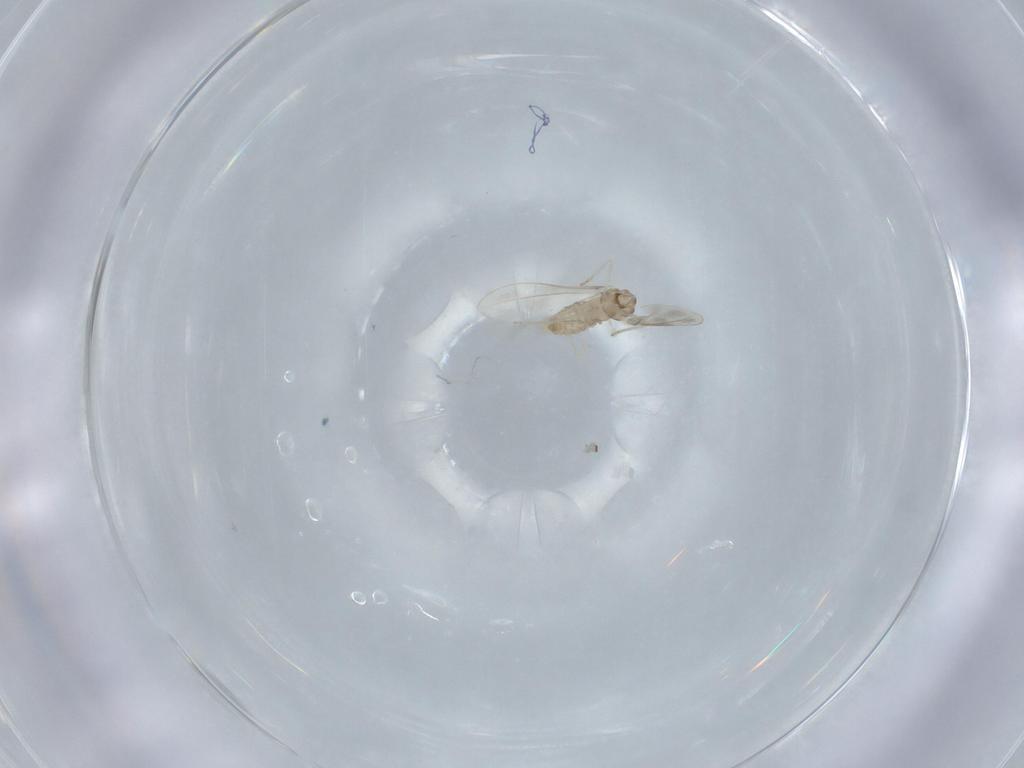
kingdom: Animalia
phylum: Arthropoda
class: Insecta
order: Diptera
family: Cecidomyiidae
